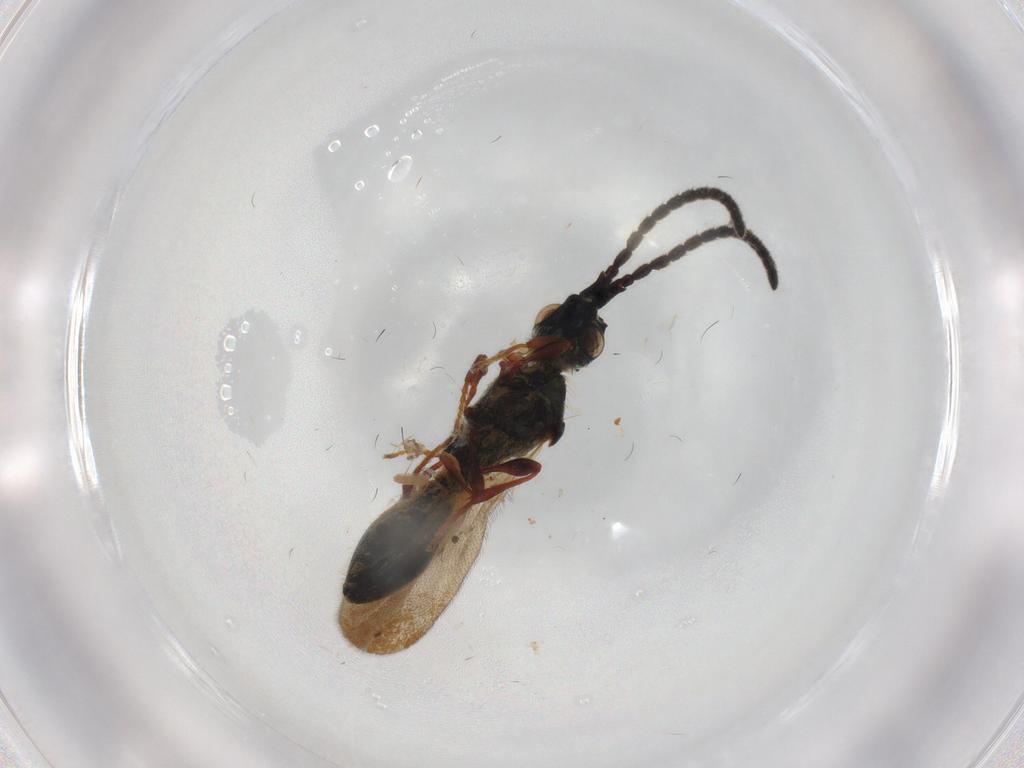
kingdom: Animalia
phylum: Arthropoda
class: Insecta
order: Hymenoptera
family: Diapriidae
